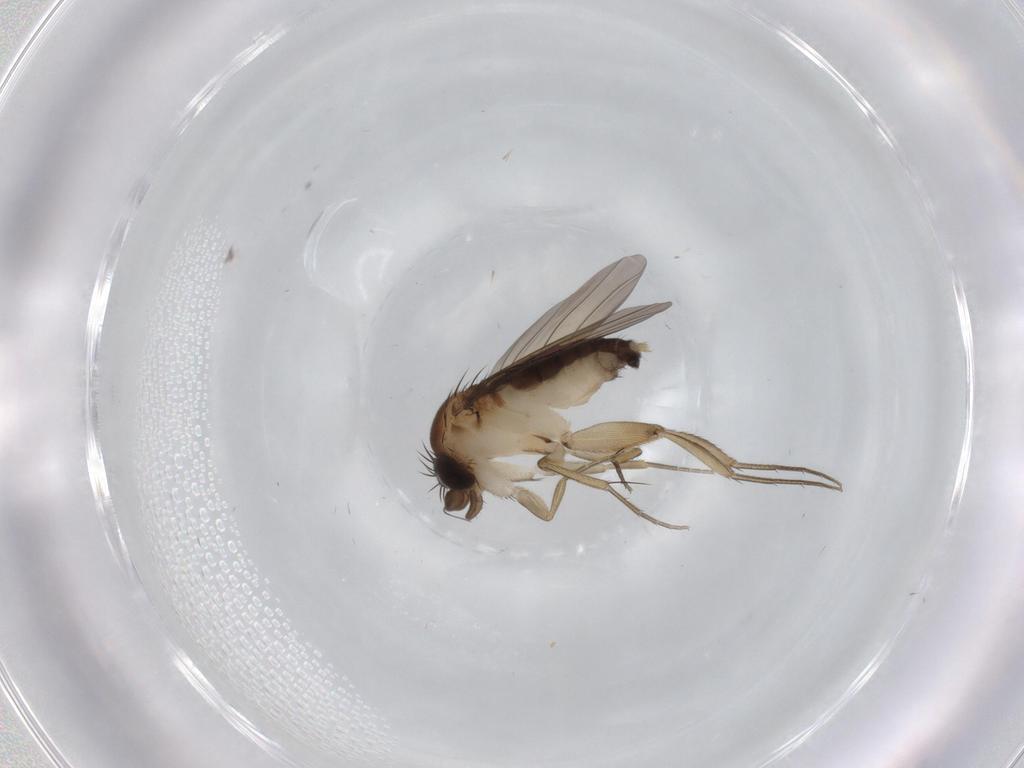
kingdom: Animalia
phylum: Arthropoda
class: Insecta
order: Diptera
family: Phoridae
